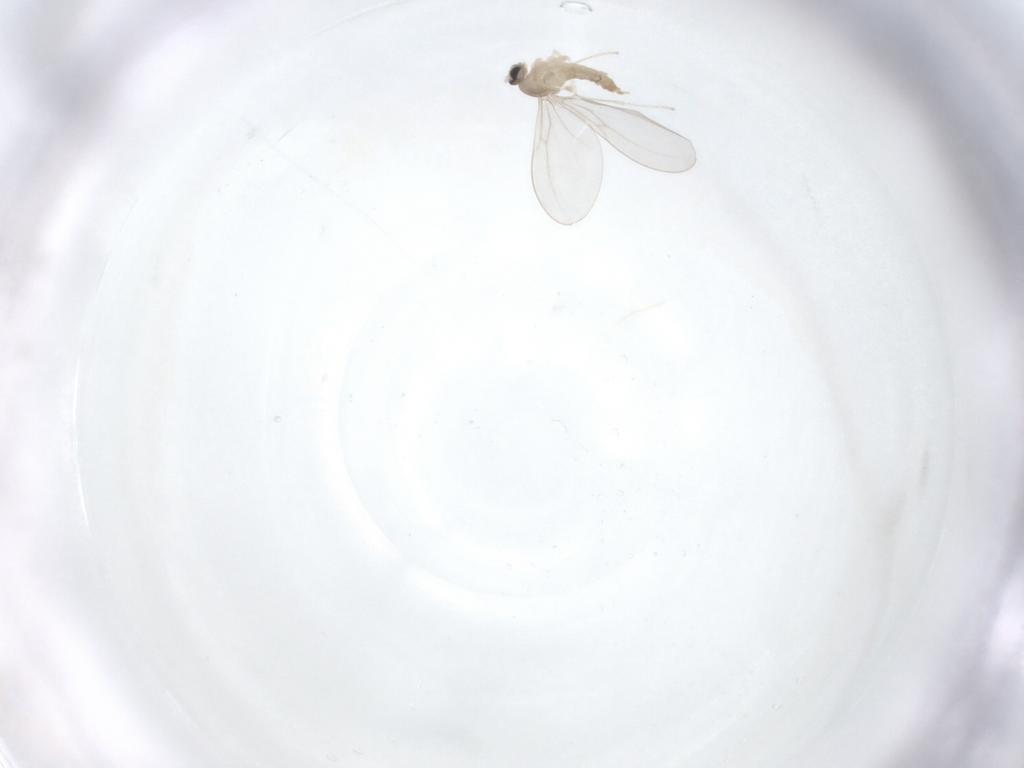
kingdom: Animalia
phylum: Arthropoda
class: Insecta
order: Diptera
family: Cecidomyiidae
